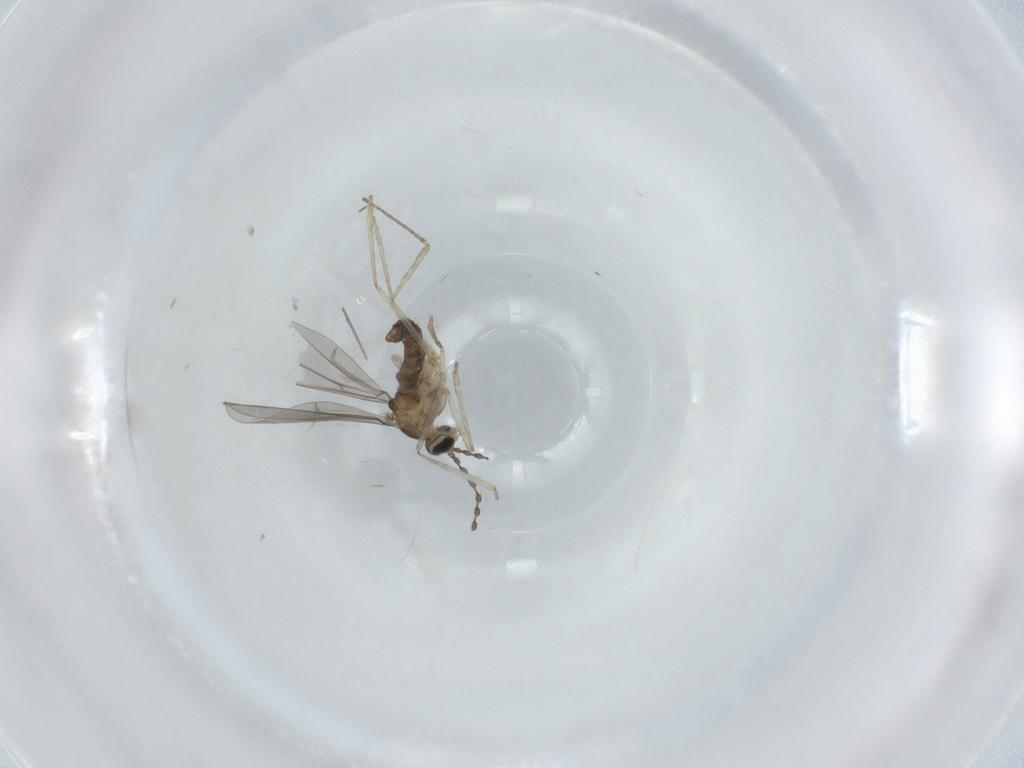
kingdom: Animalia
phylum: Arthropoda
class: Insecta
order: Diptera
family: Cecidomyiidae
